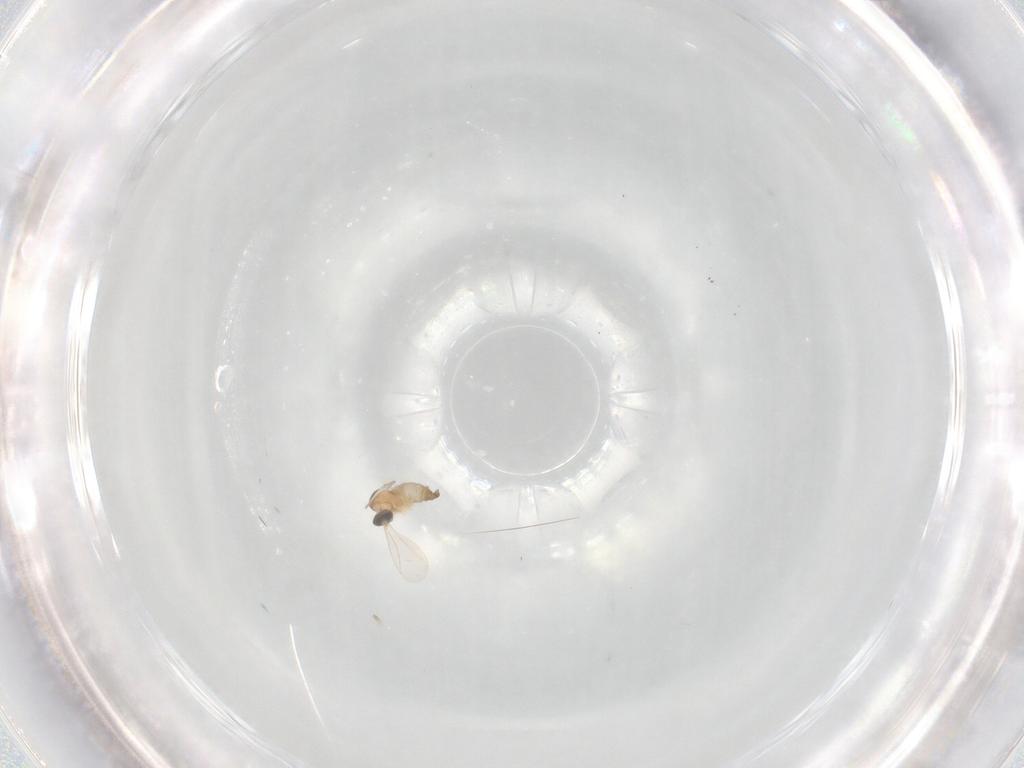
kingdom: Animalia
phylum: Arthropoda
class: Insecta
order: Diptera
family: Cecidomyiidae
